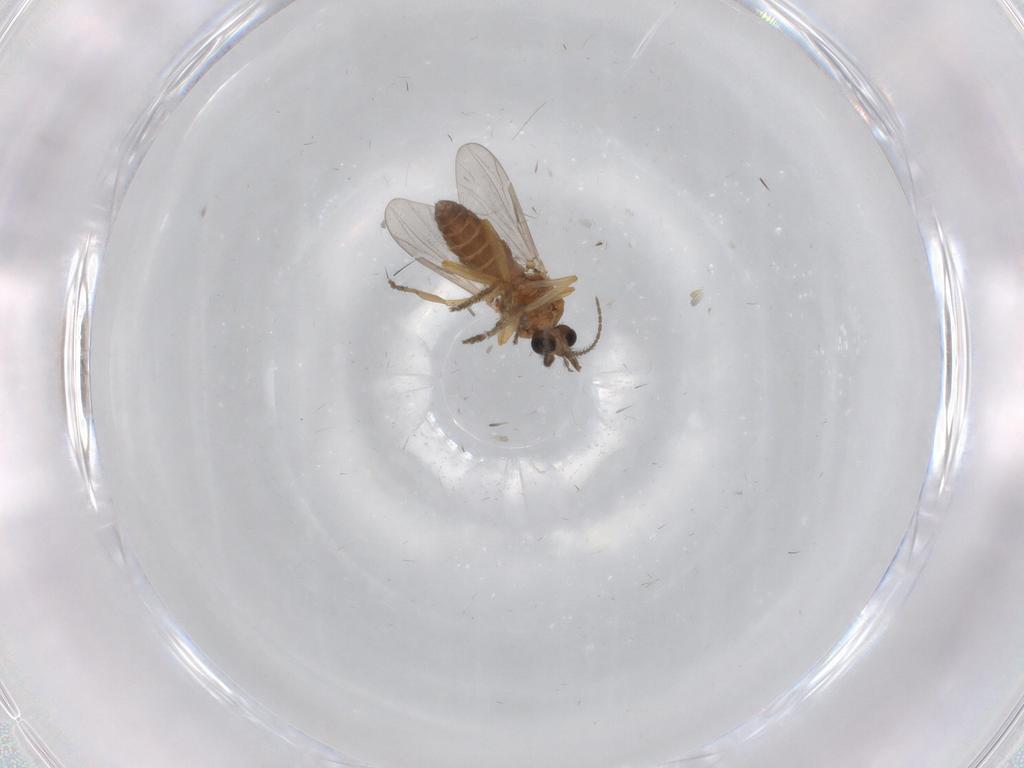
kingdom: Animalia
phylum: Arthropoda
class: Insecta
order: Diptera
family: Ceratopogonidae
